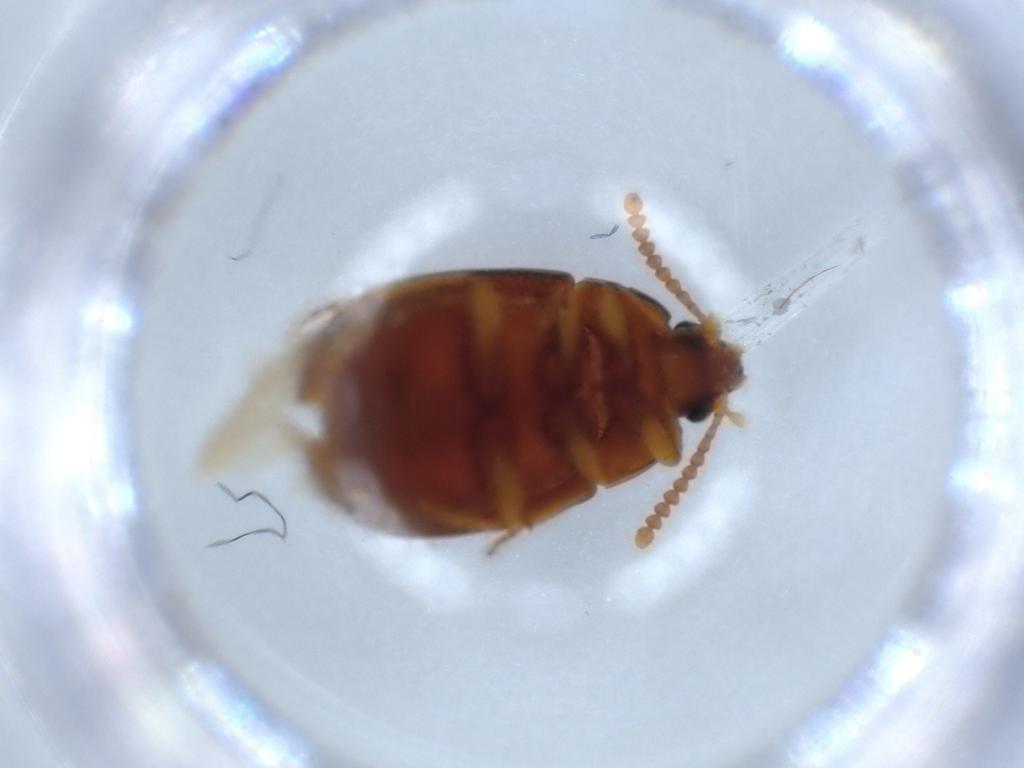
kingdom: Animalia
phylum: Arthropoda
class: Insecta
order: Coleoptera
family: Tenebrionidae
